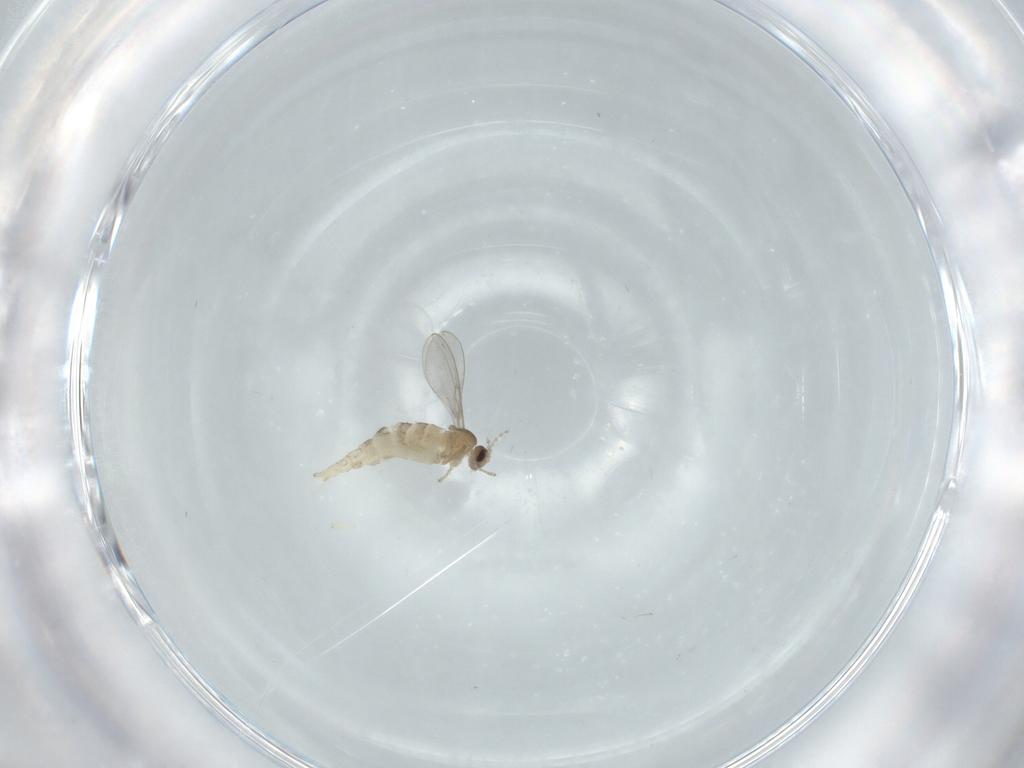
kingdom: Animalia
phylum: Arthropoda
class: Insecta
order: Diptera
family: Cecidomyiidae
